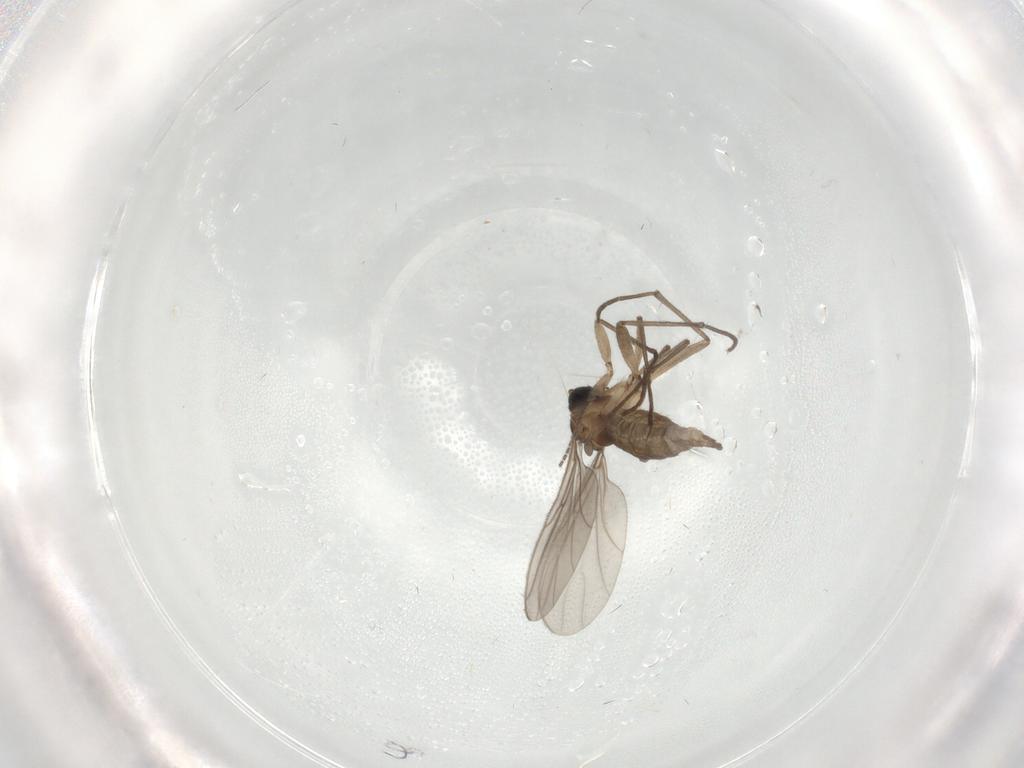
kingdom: Animalia
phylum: Arthropoda
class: Insecta
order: Diptera
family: Sciaridae
